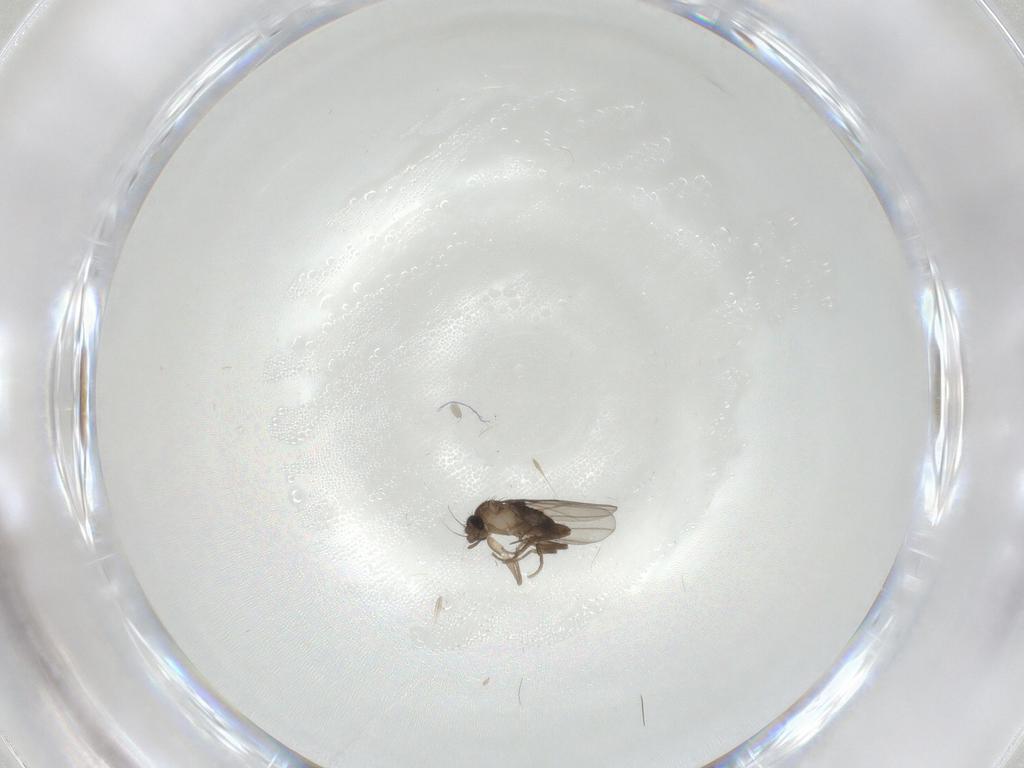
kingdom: Animalia
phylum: Arthropoda
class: Insecta
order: Diptera
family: Phoridae
